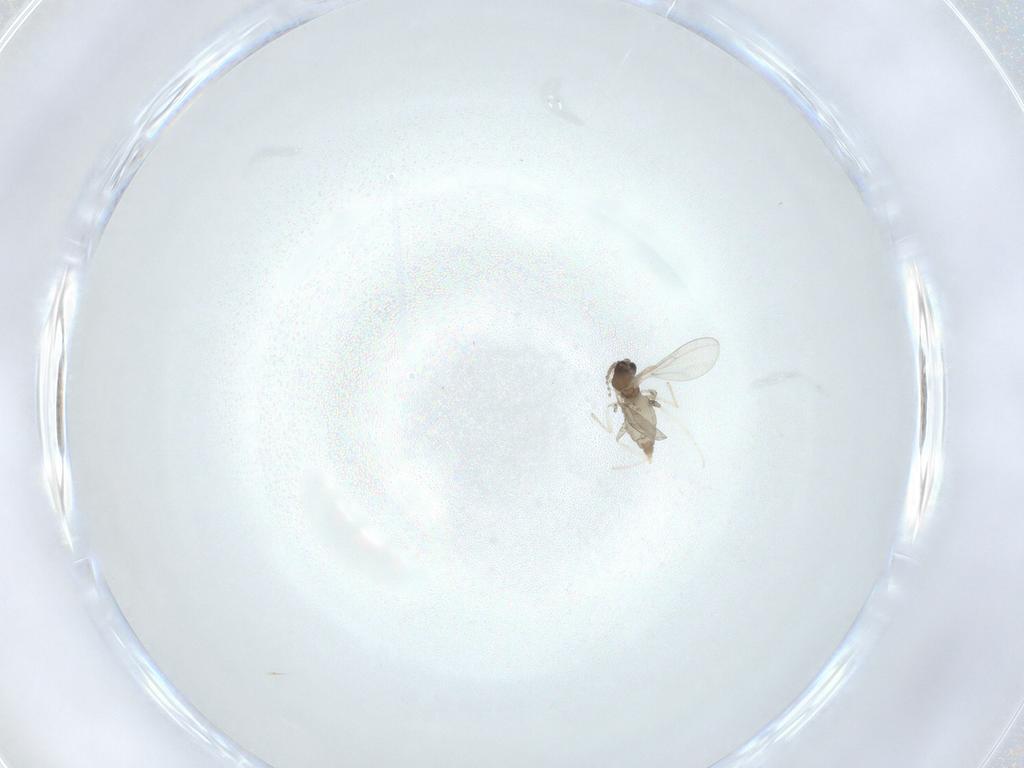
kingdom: Animalia
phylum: Arthropoda
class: Insecta
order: Diptera
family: Cecidomyiidae
